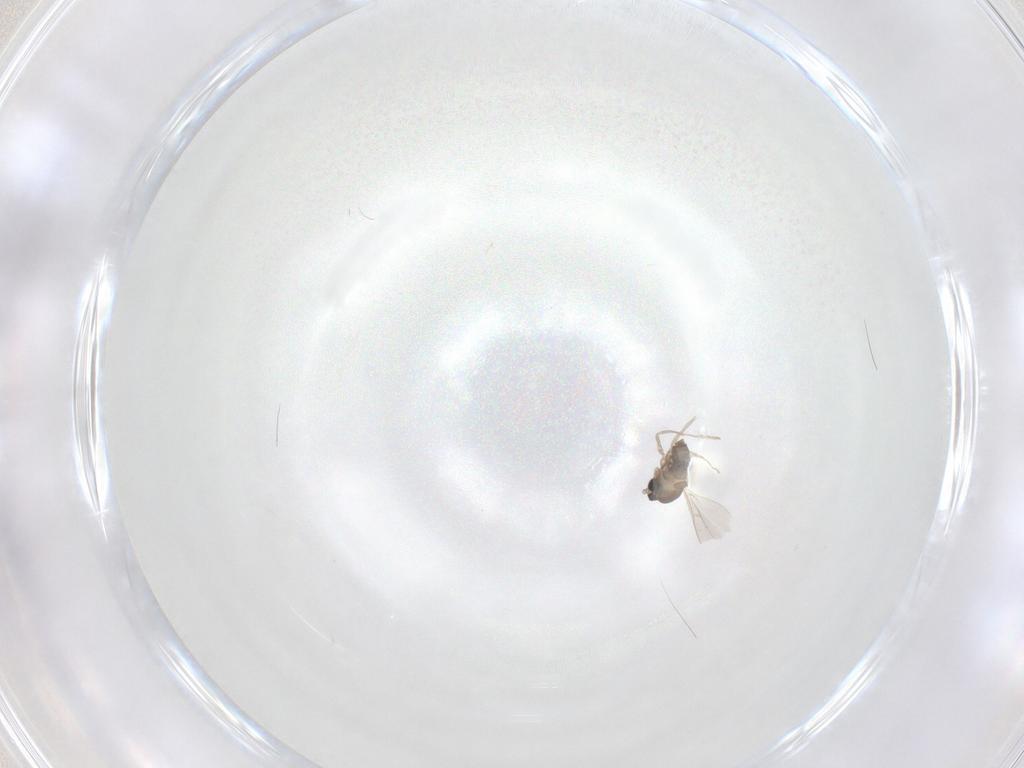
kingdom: Animalia
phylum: Arthropoda
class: Insecta
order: Diptera
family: Cecidomyiidae
